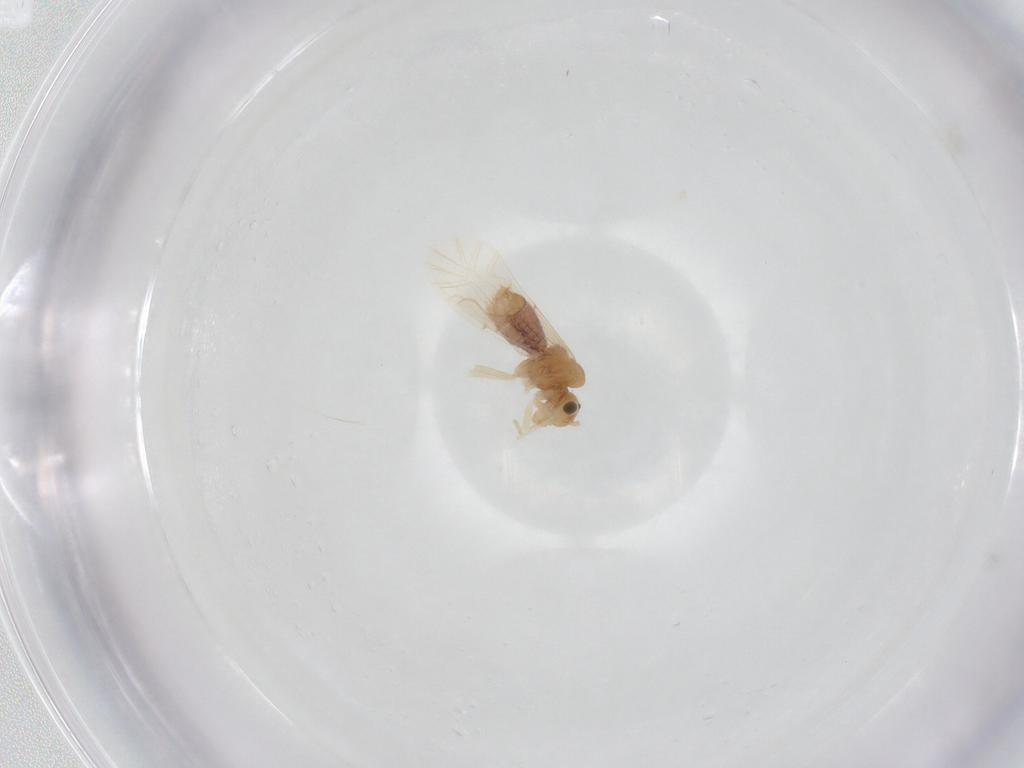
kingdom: Animalia
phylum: Arthropoda
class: Insecta
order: Psocodea
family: Lachesillidae
